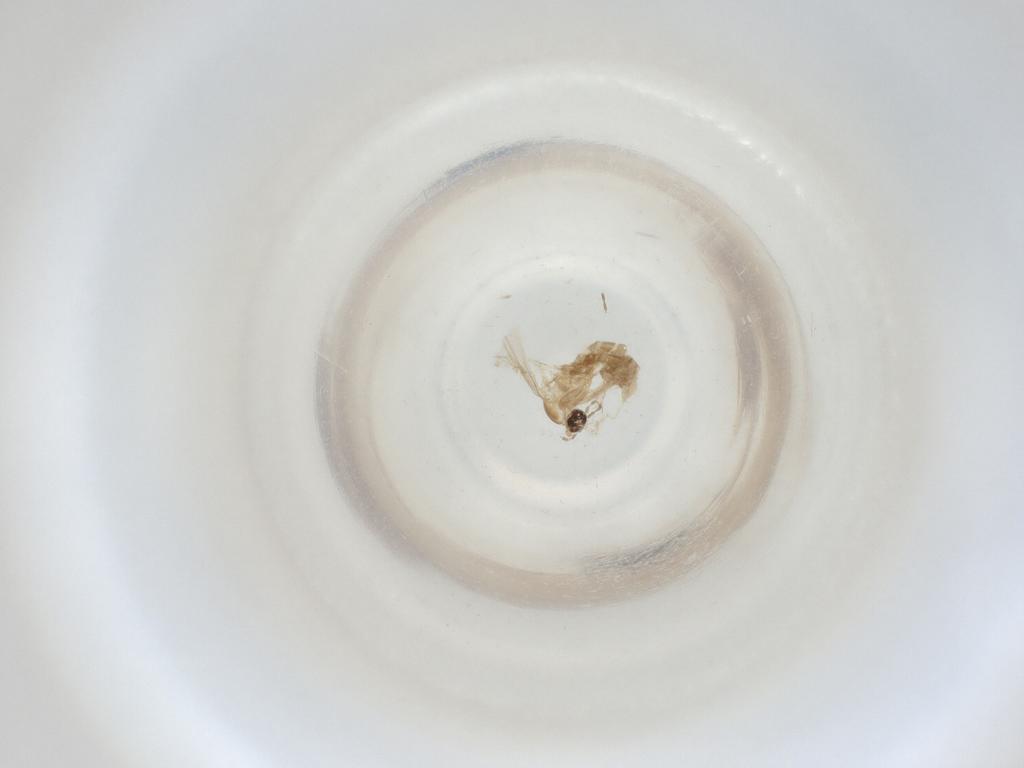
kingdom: Animalia
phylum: Arthropoda
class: Insecta
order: Diptera
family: Cecidomyiidae
